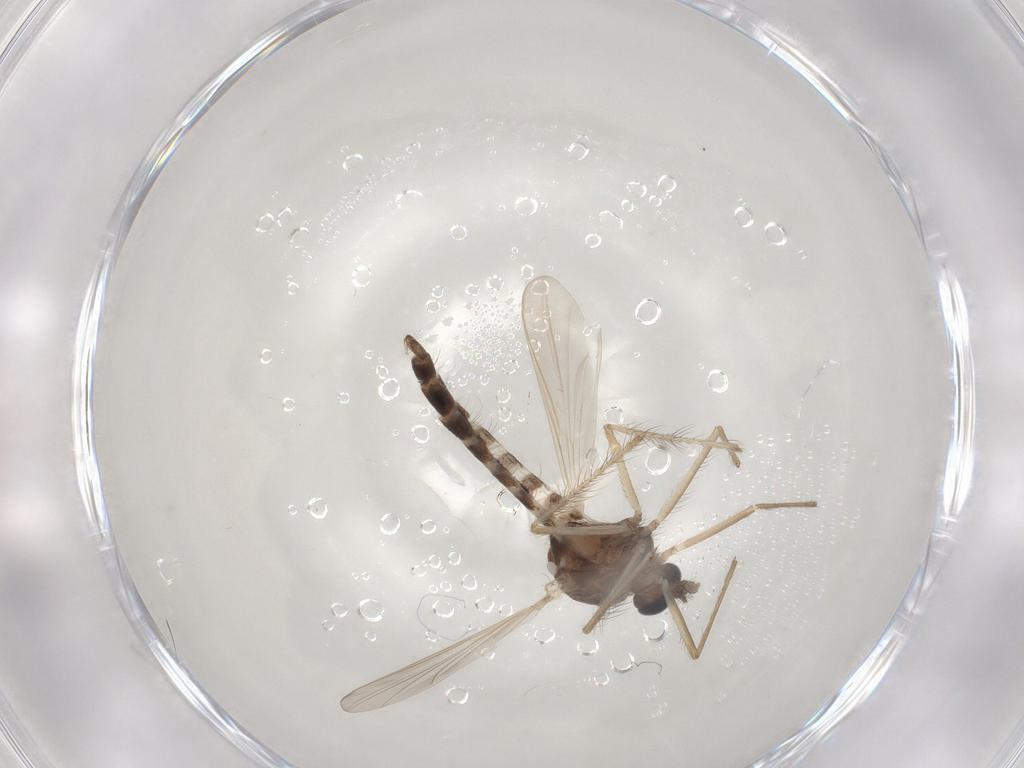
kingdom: Animalia
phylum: Arthropoda
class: Insecta
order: Diptera
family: Chironomidae
